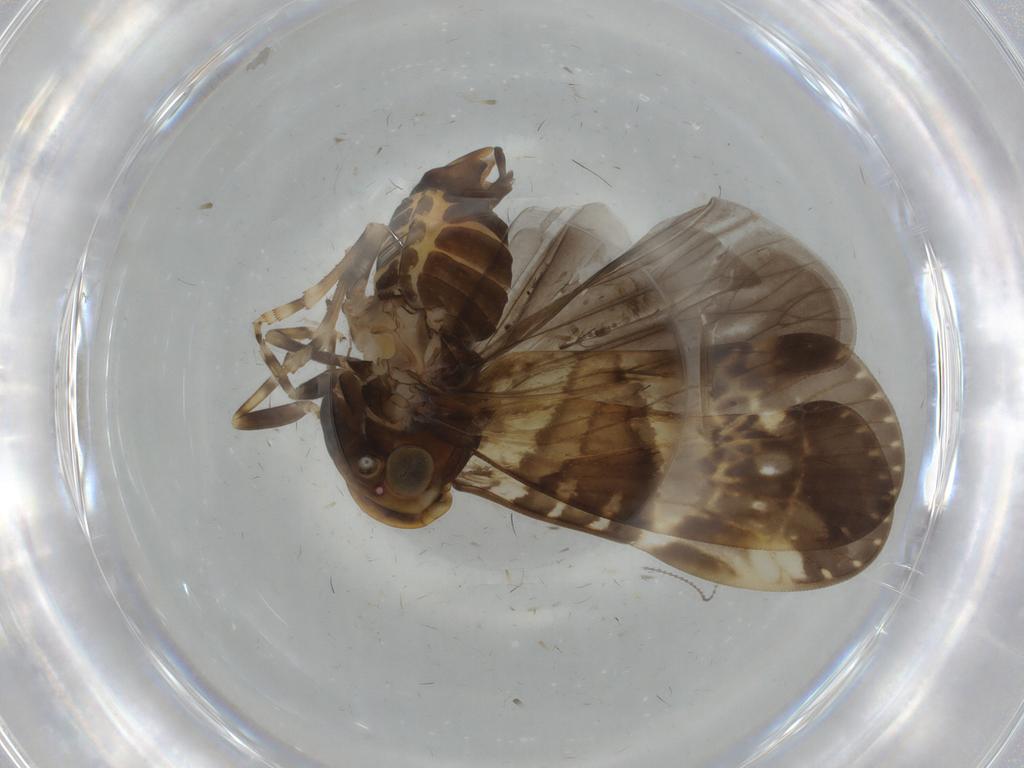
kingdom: Animalia
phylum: Arthropoda
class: Insecta
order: Hemiptera
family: Cixiidae
